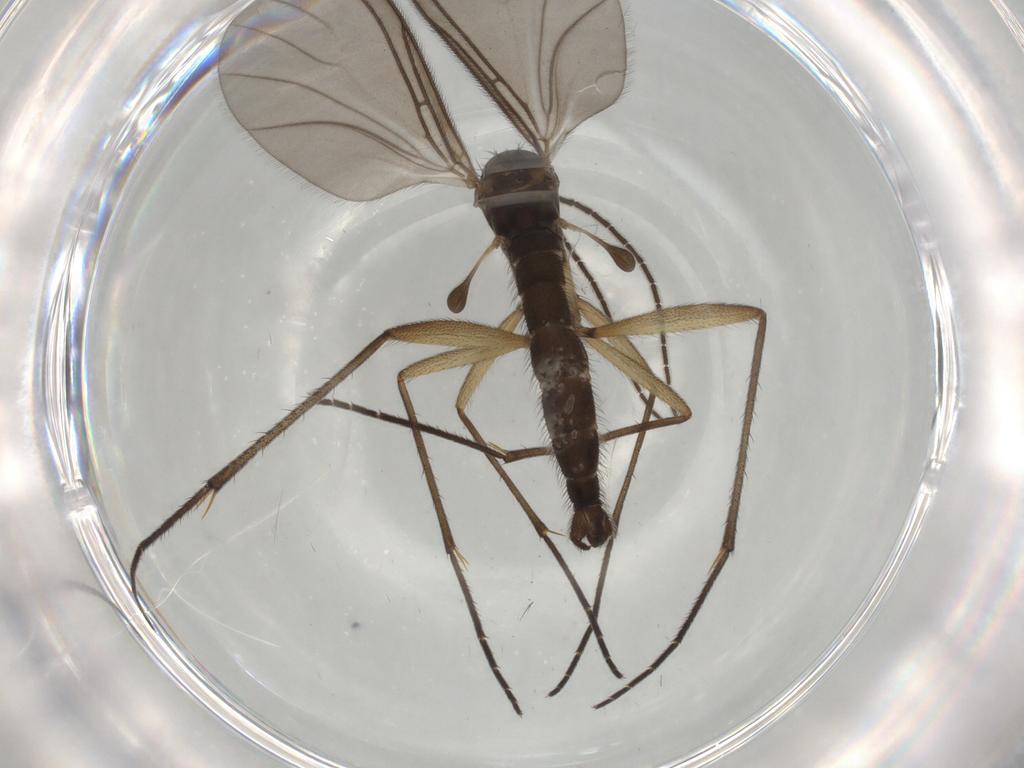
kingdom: Animalia
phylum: Arthropoda
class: Insecta
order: Diptera
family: Sciaridae
